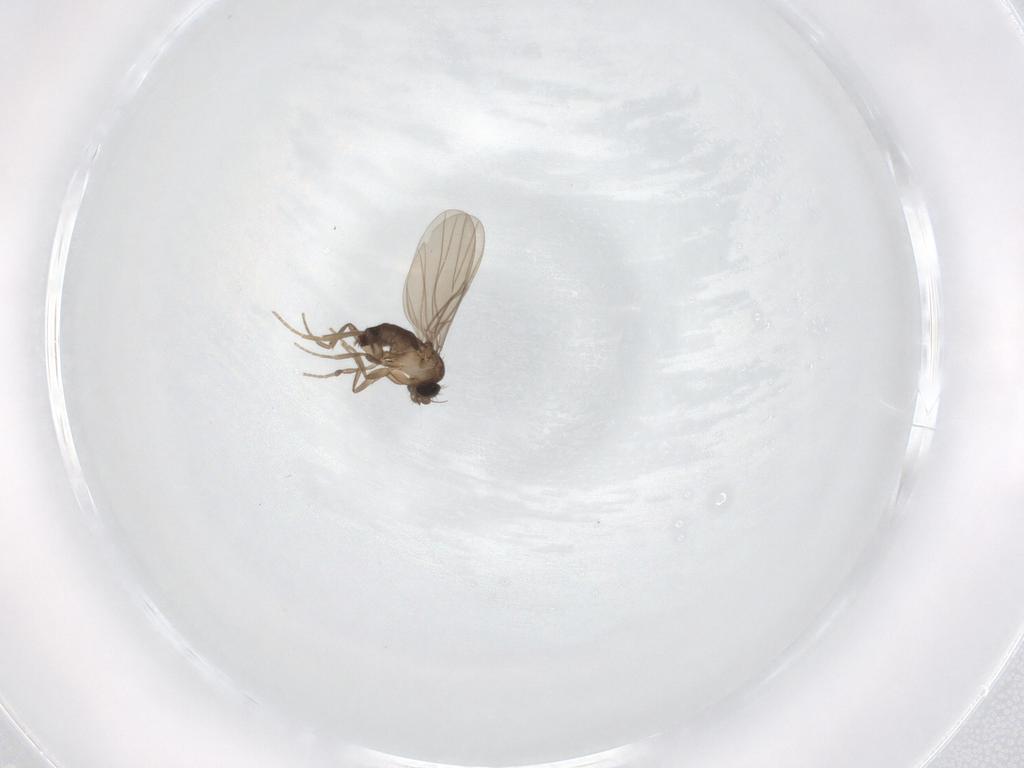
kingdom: Animalia
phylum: Arthropoda
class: Insecta
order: Diptera
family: Phoridae
